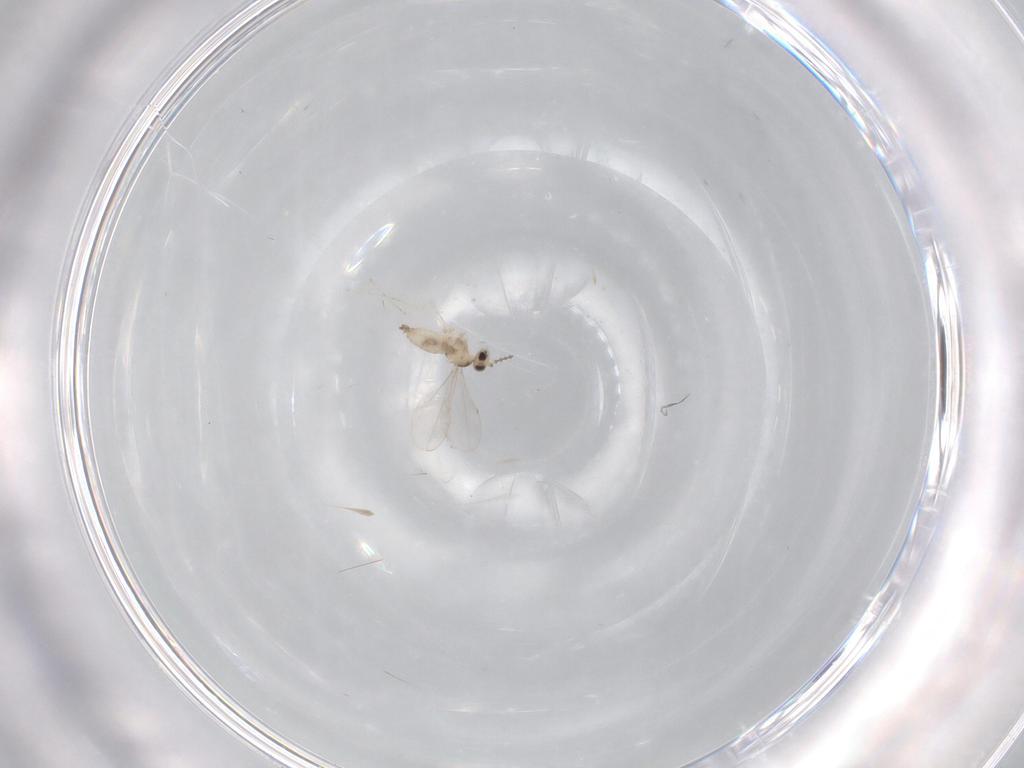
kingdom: Animalia
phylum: Arthropoda
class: Insecta
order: Diptera
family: Cecidomyiidae
